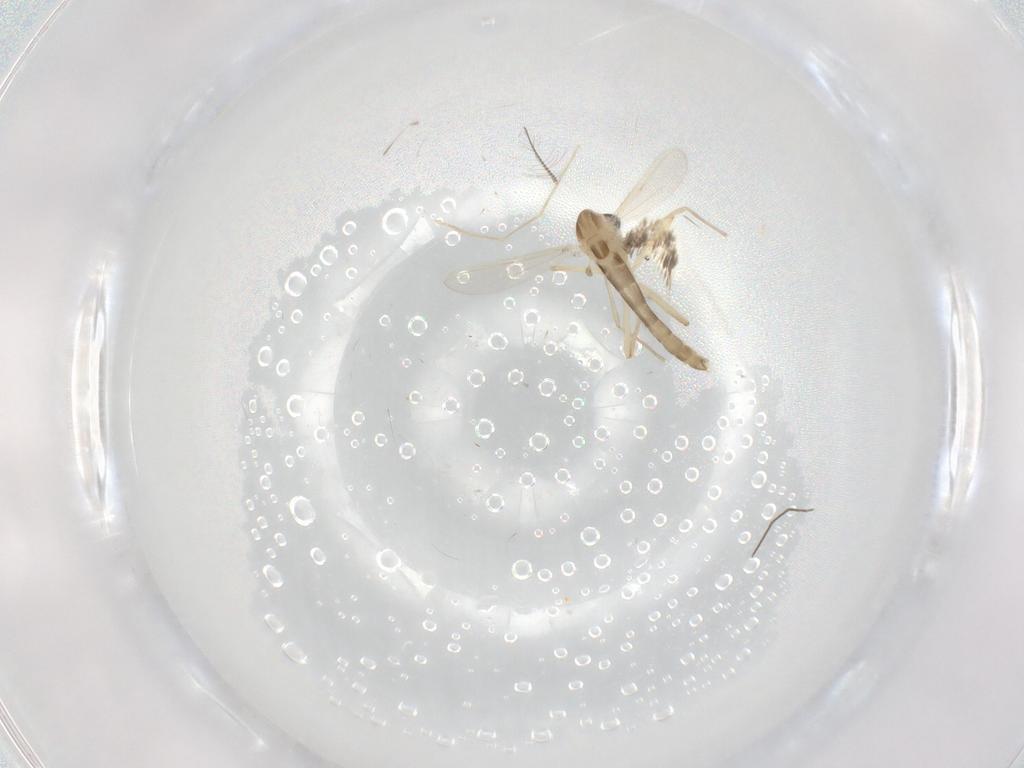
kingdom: Animalia
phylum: Arthropoda
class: Insecta
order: Diptera
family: Chironomidae
